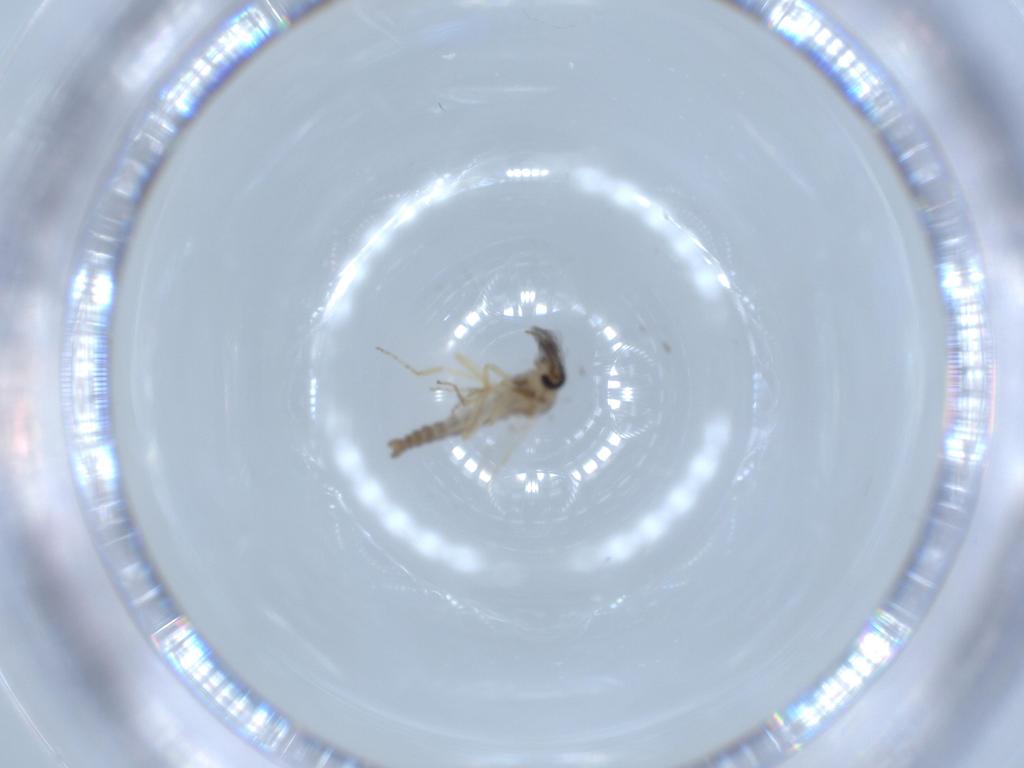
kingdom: Animalia
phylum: Arthropoda
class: Insecta
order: Diptera
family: Ceratopogonidae
